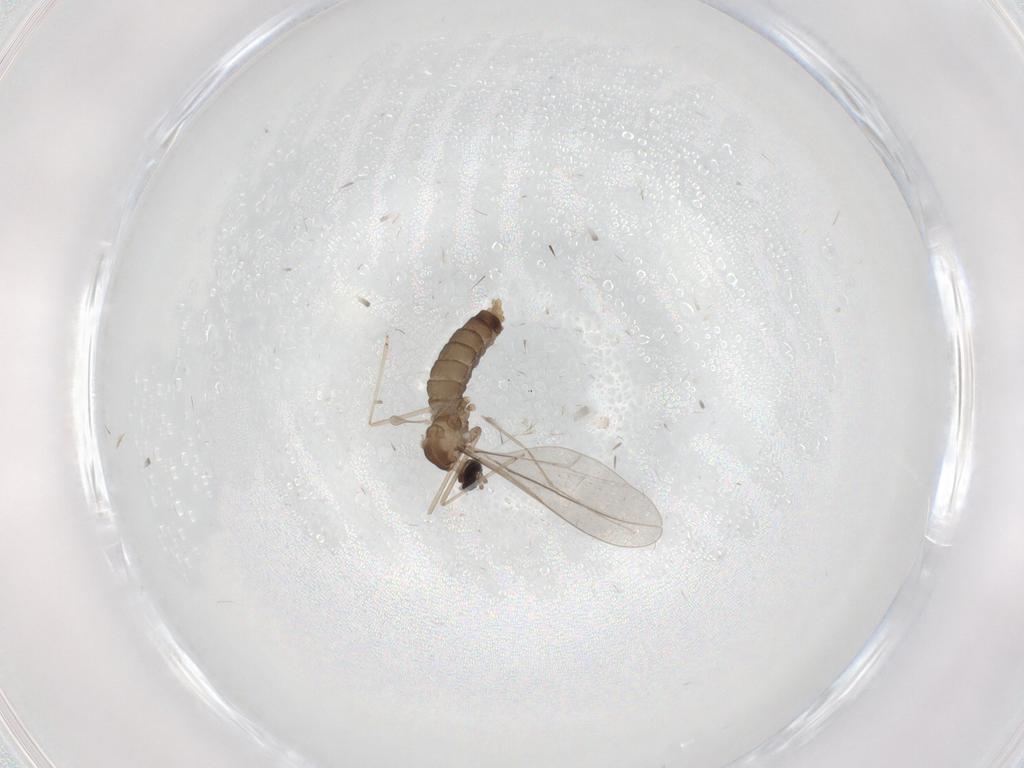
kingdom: Animalia
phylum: Arthropoda
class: Insecta
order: Diptera
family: Cecidomyiidae
